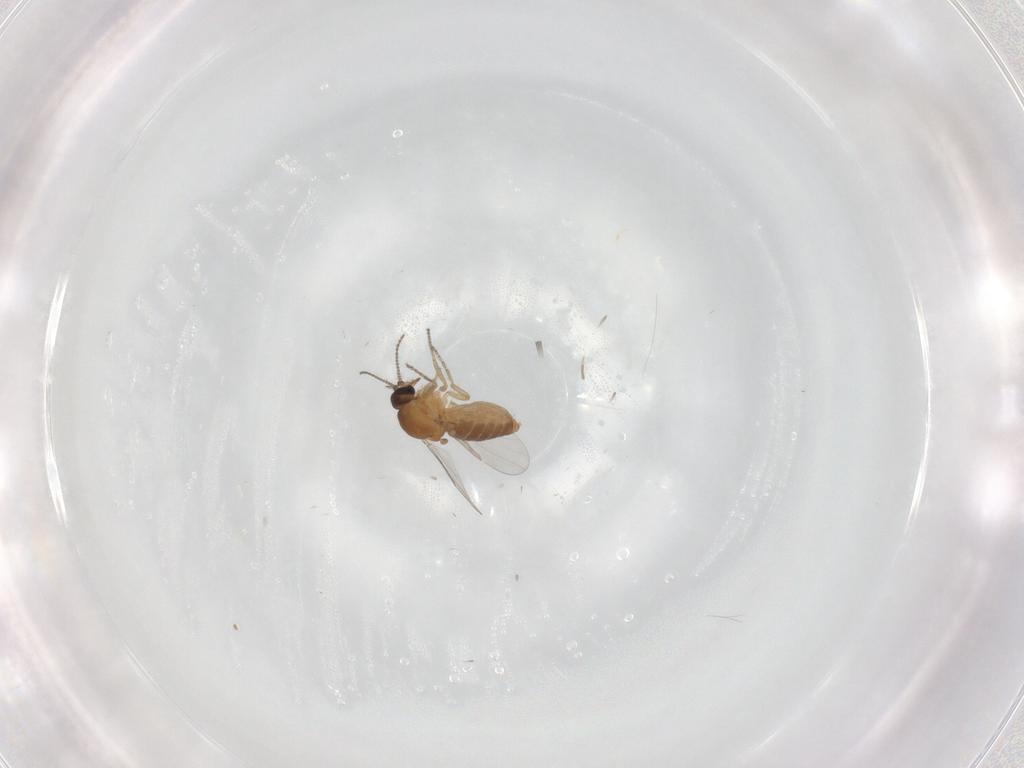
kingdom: Animalia
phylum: Arthropoda
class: Insecta
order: Diptera
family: Ceratopogonidae
